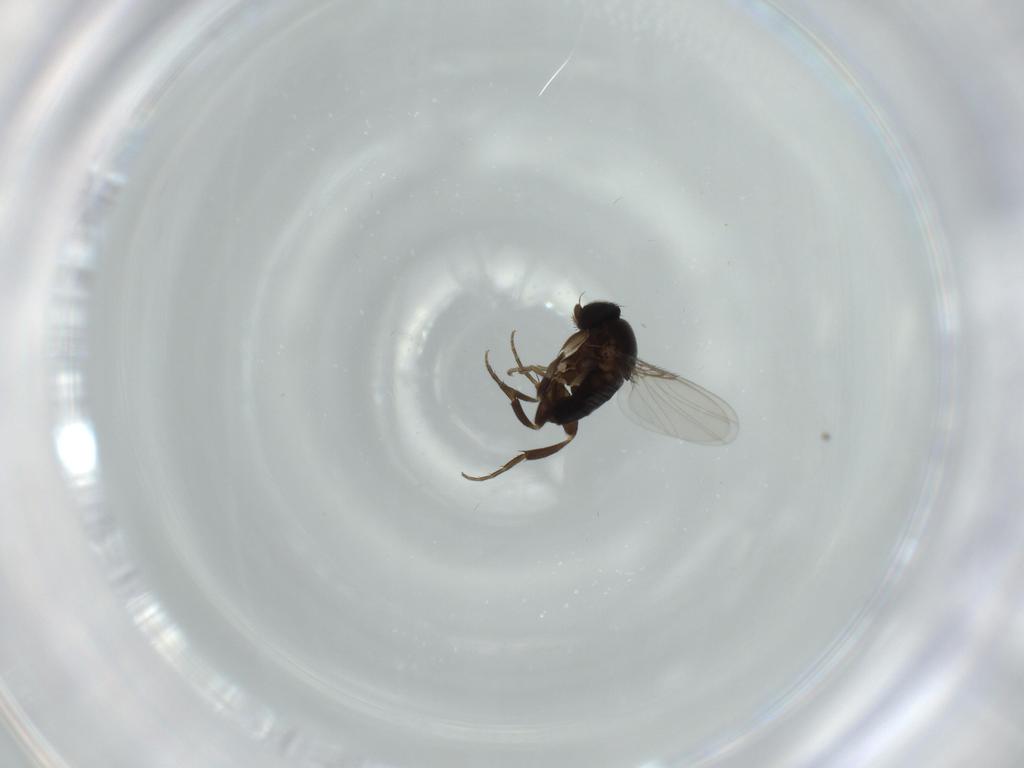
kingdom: Animalia
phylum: Arthropoda
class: Insecta
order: Diptera
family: Phoridae
